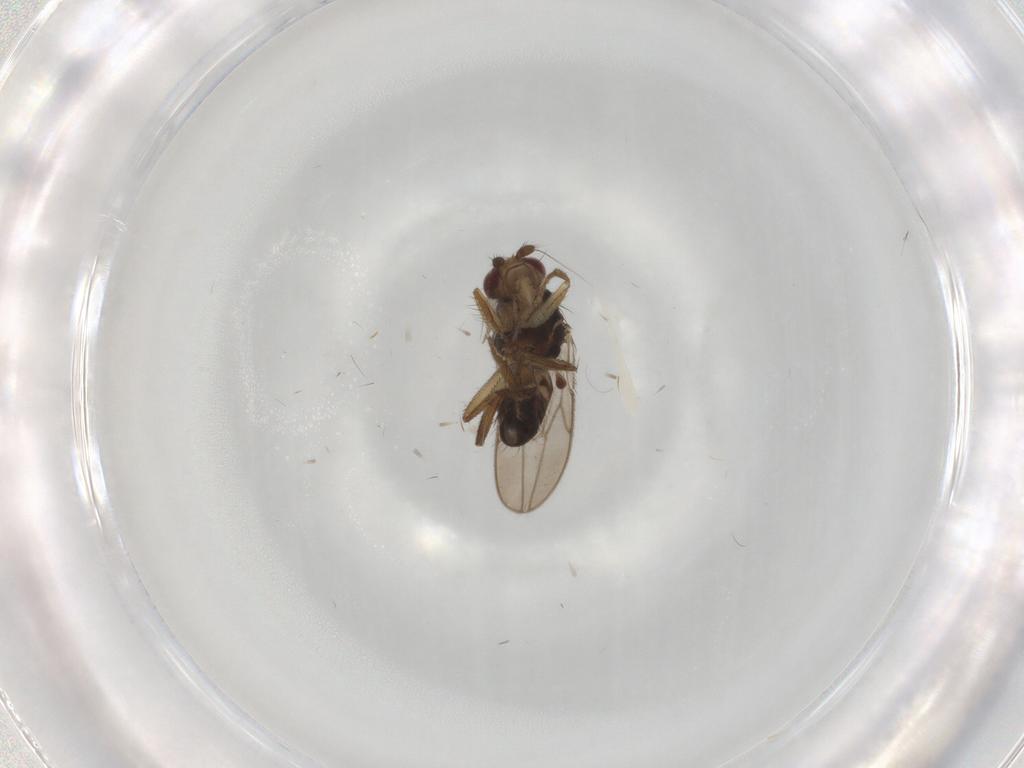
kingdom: Animalia
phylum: Arthropoda
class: Insecta
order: Diptera
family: Sphaeroceridae
